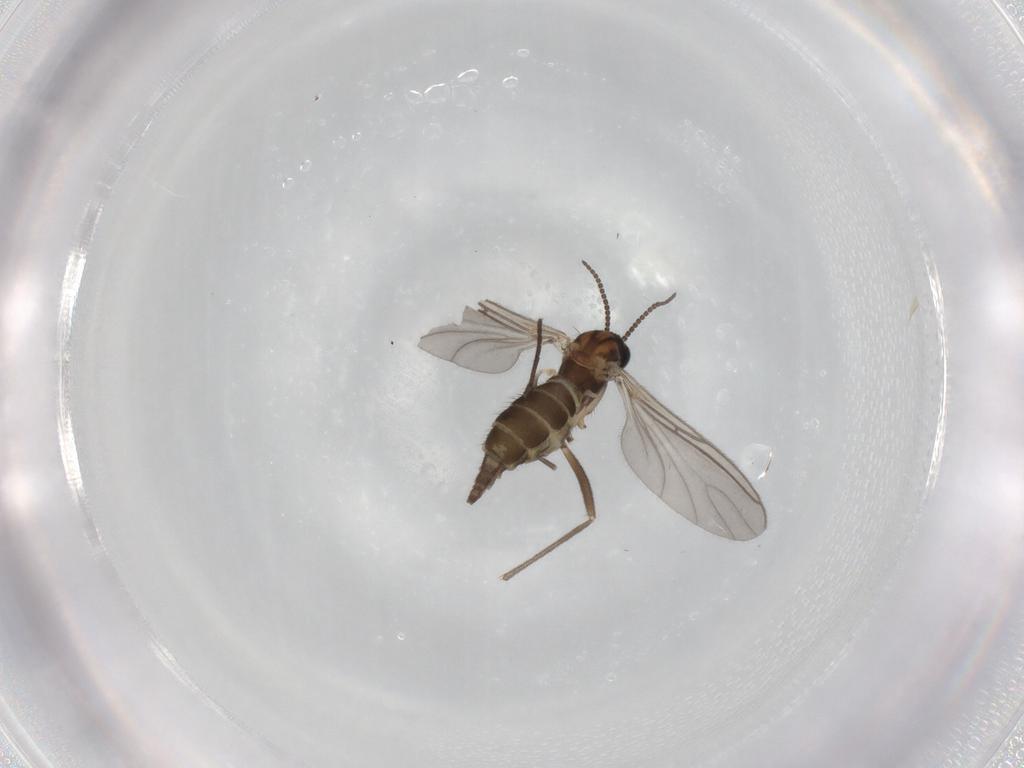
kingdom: Animalia
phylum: Arthropoda
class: Insecta
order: Diptera
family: Sciaridae
